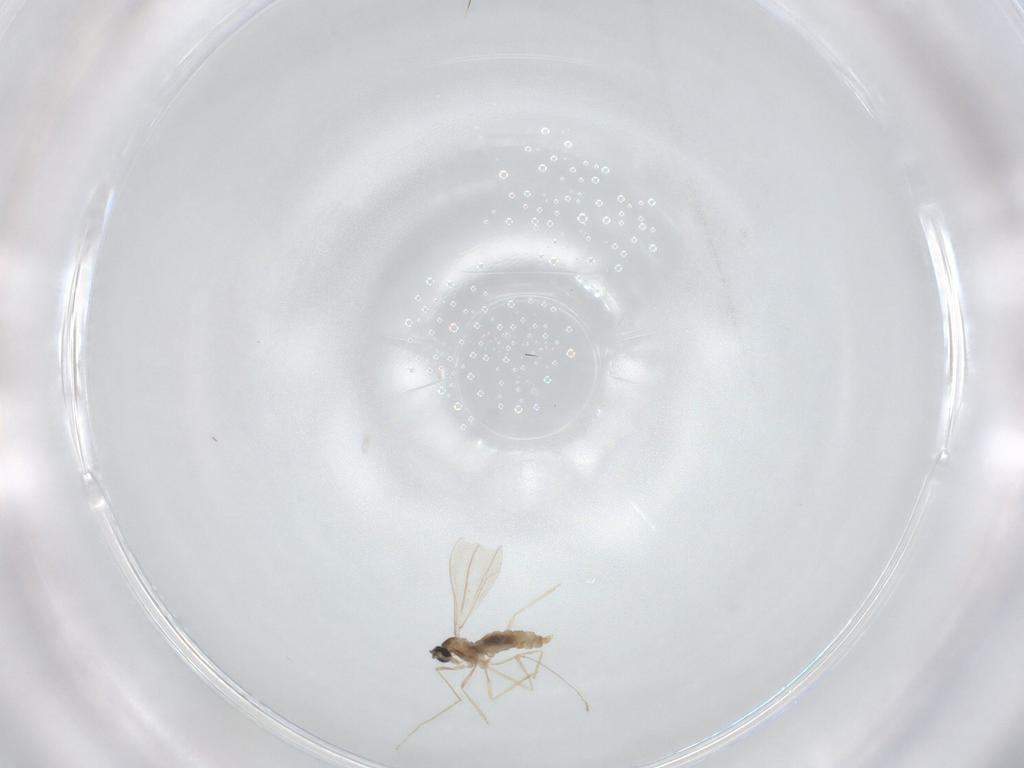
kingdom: Animalia
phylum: Arthropoda
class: Insecta
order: Diptera
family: Cecidomyiidae
